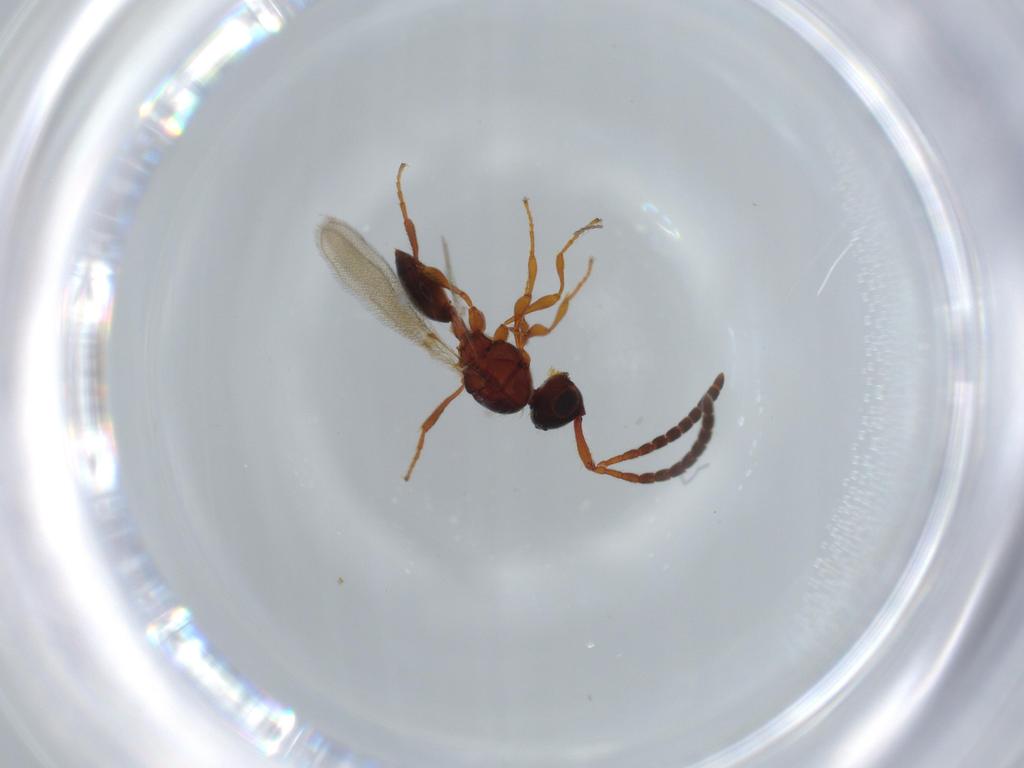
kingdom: Animalia
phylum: Arthropoda
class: Insecta
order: Hymenoptera
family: Diapriidae
